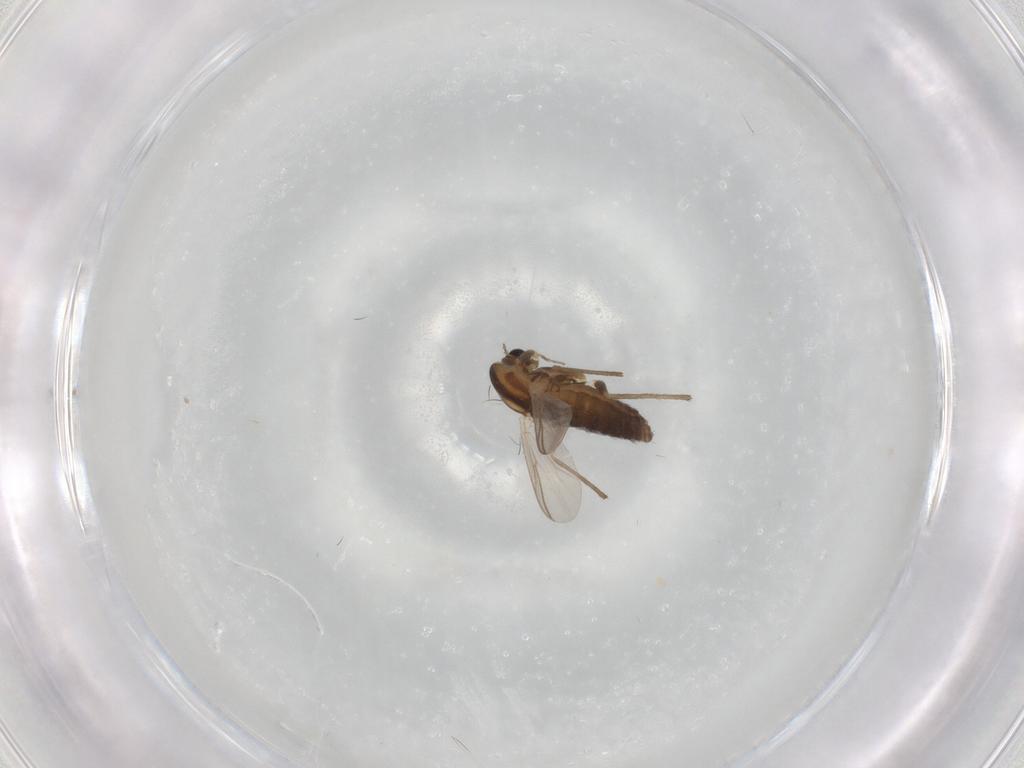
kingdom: Animalia
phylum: Arthropoda
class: Insecta
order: Diptera
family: Chironomidae
